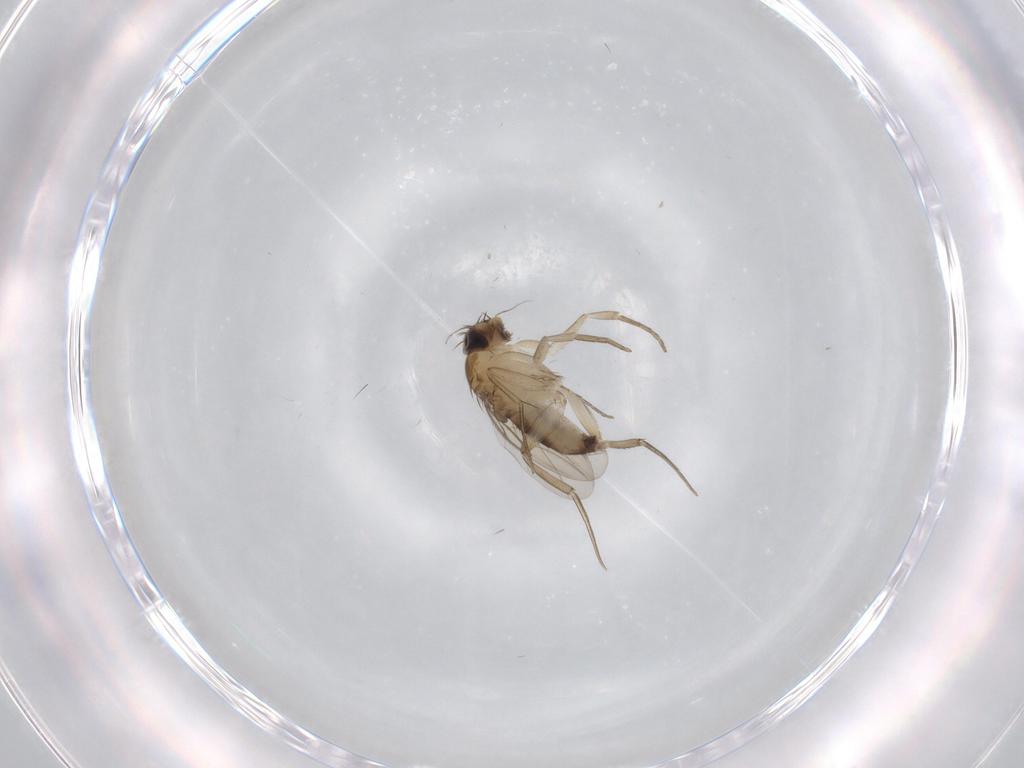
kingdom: Animalia
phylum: Arthropoda
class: Insecta
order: Diptera
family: Phoridae
